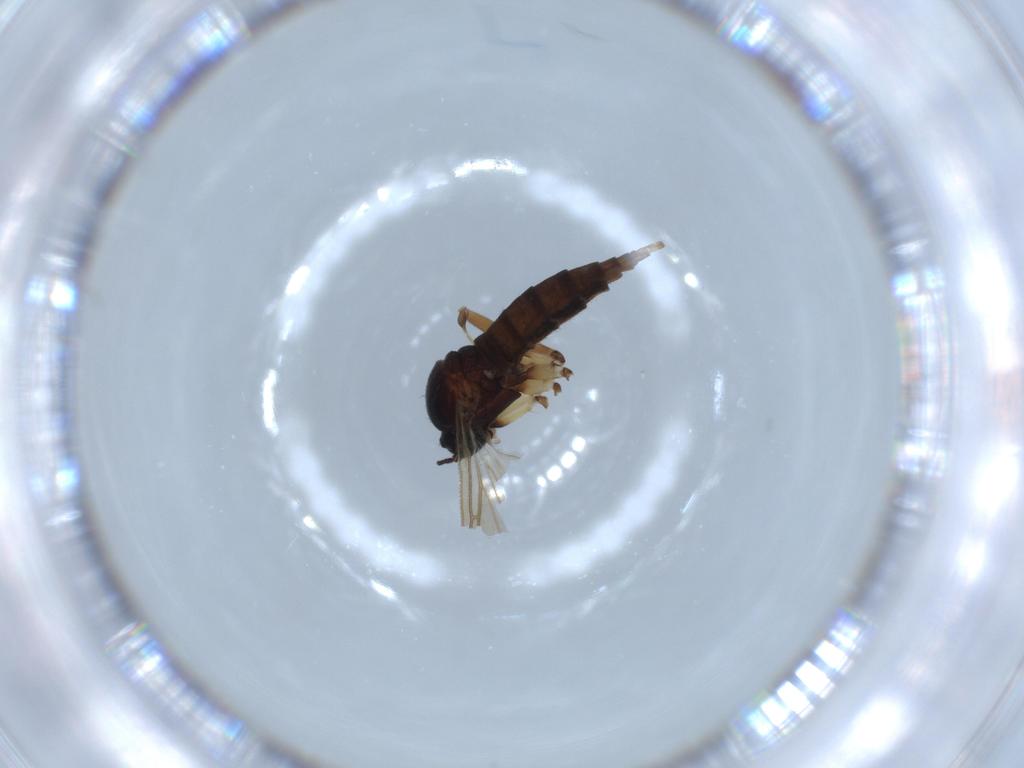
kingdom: Animalia
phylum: Arthropoda
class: Insecta
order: Diptera
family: Sciaridae
